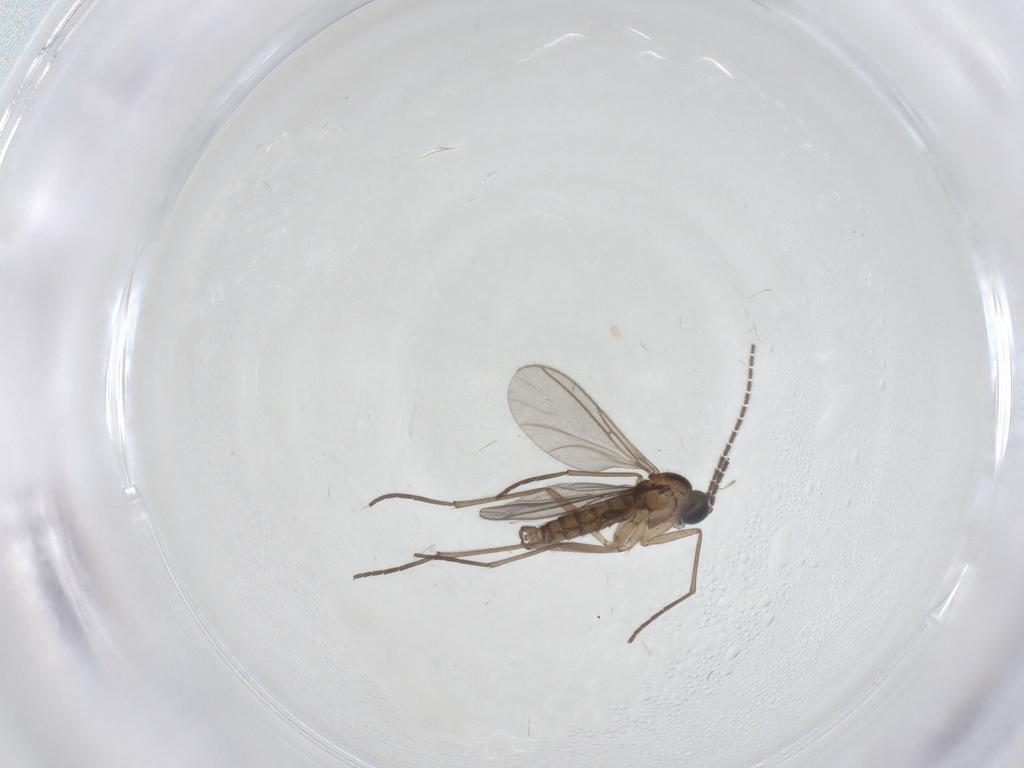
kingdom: Animalia
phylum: Arthropoda
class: Insecta
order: Diptera
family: Sciaridae
